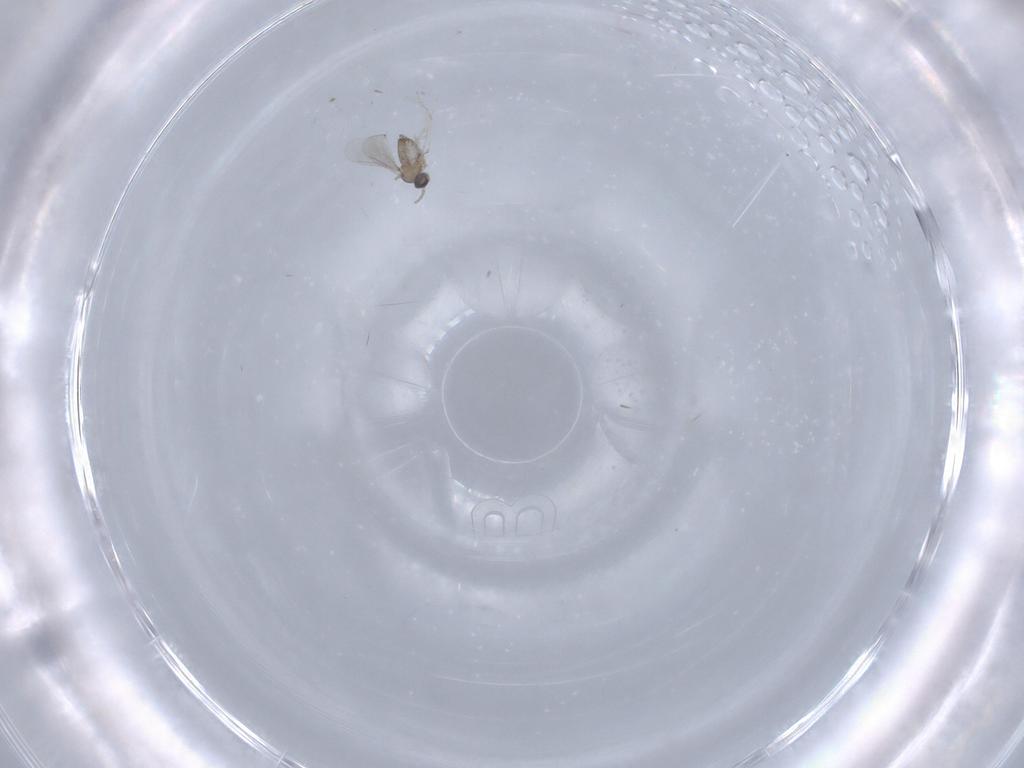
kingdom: Animalia
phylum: Arthropoda
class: Insecta
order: Diptera
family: Cecidomyiidae
